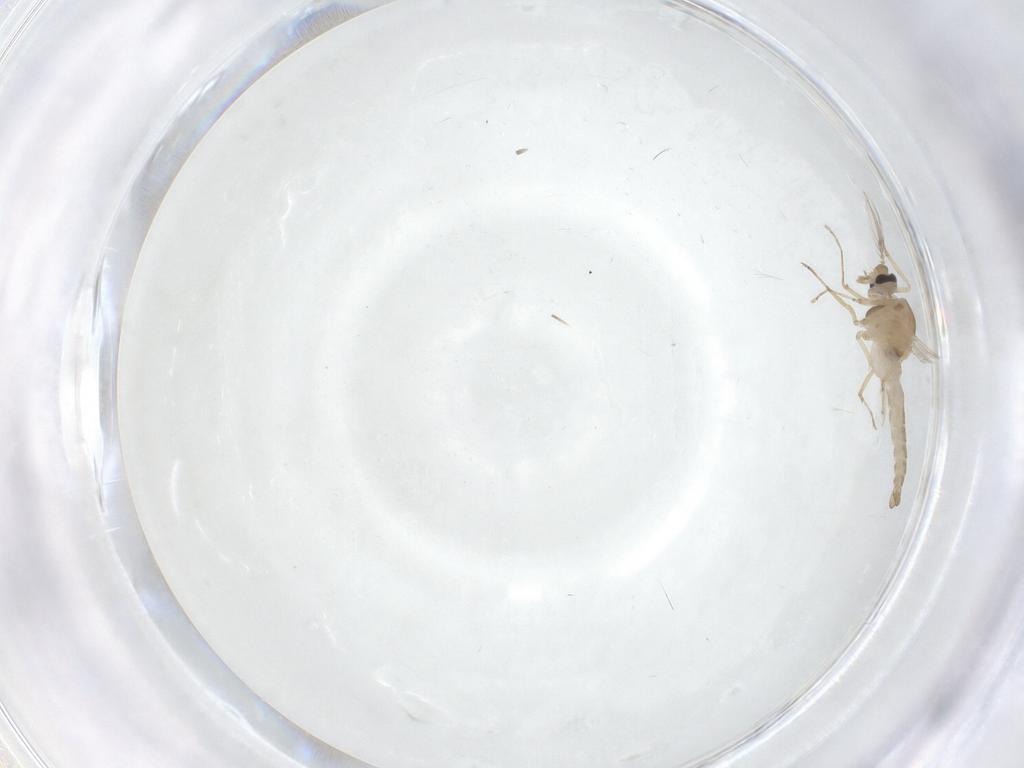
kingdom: Animalia
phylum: Arthropoda
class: Insecta
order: Diptera
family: Ceratopogonidae
